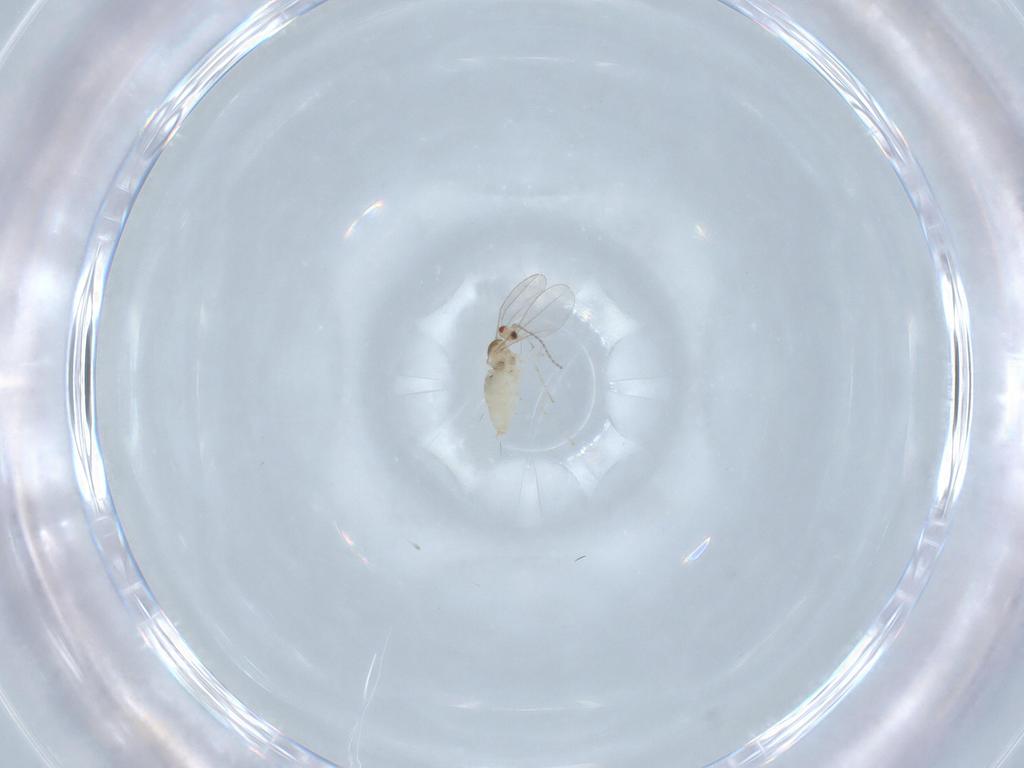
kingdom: Animalia
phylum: Arthropoda
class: Insecta
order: Diptera
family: Cecidomyiidae
